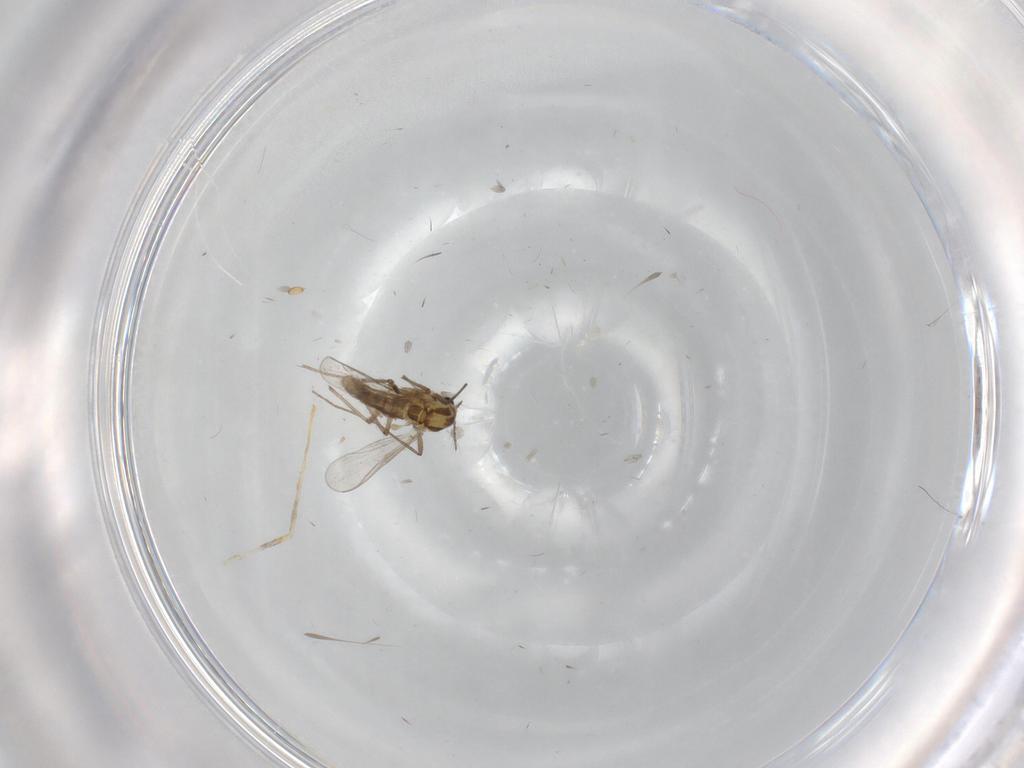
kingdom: Animalia
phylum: Arthropoda
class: Insecta
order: Diptera
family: Chironomidae
